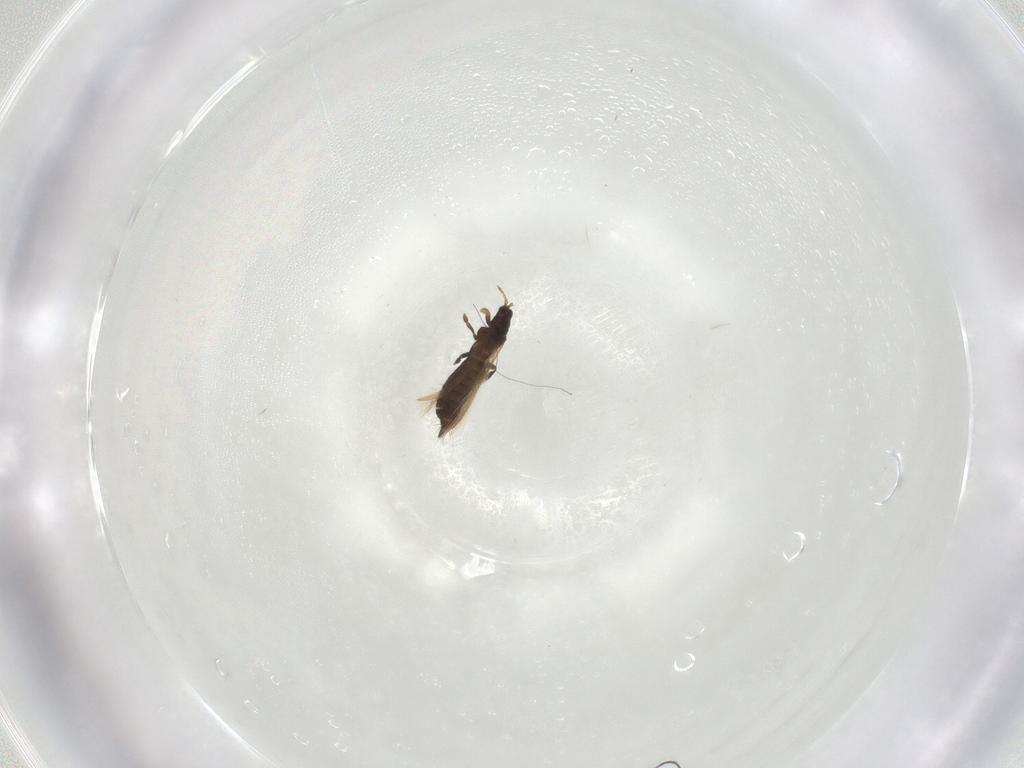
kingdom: Animalia
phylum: Arthropoda
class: Insecta
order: Thysanoptera
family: Thripidae
